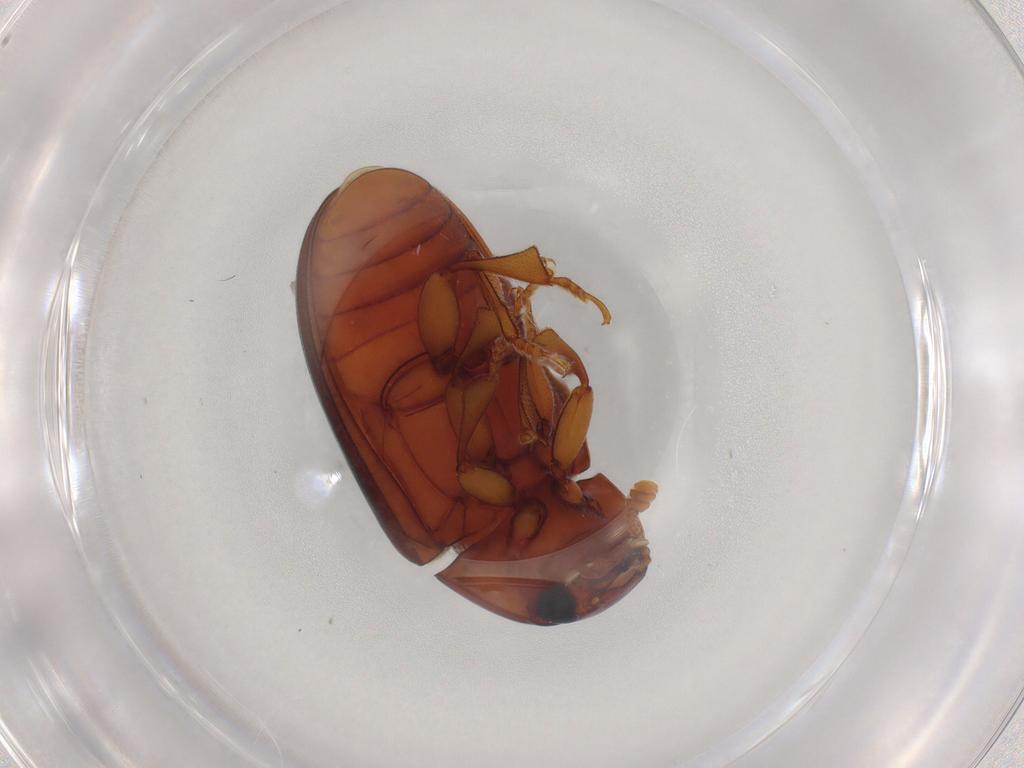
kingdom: Animalia
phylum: Arthropoda
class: Insecta
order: Coleoptera
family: Erotylidae
